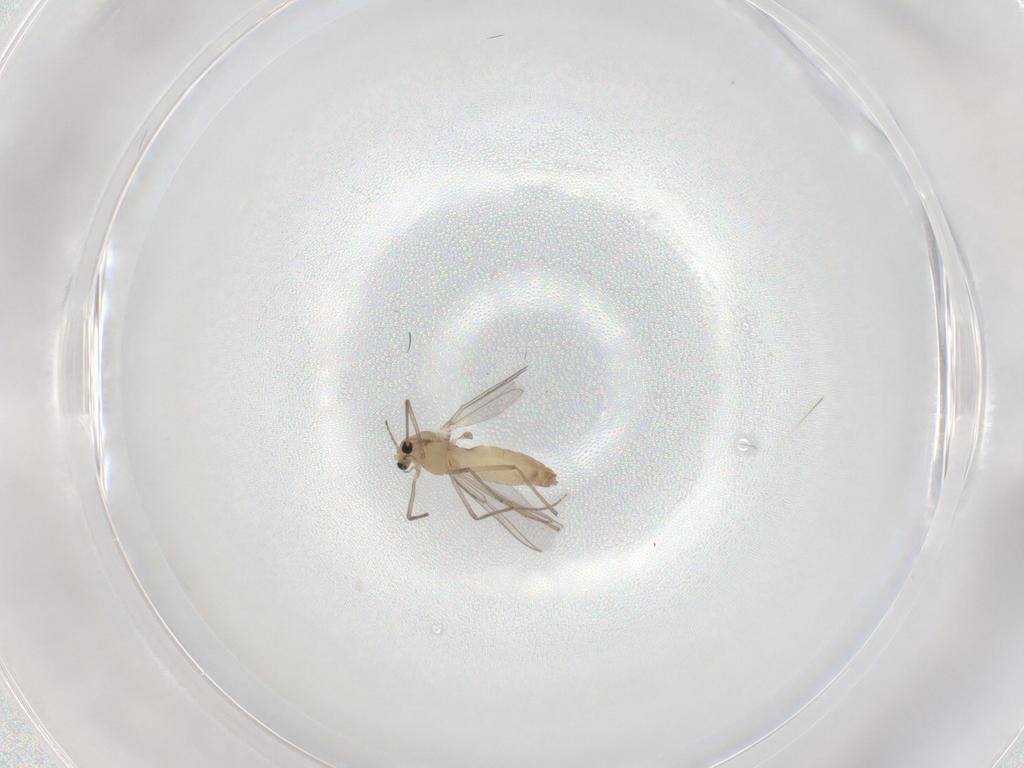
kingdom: Animalia
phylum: Arthropoda
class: Insecta
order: Diptera
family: Chironomidae
